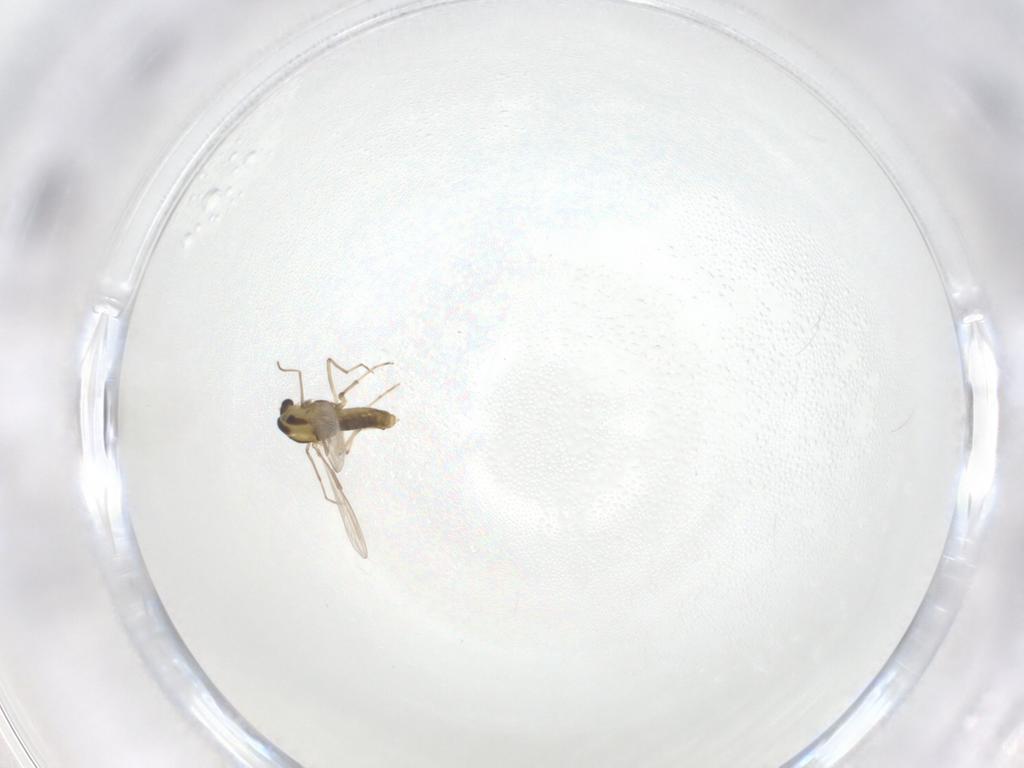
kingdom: Animalia
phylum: Arthropoda
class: Insecta
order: Diptera
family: Chironomidae
